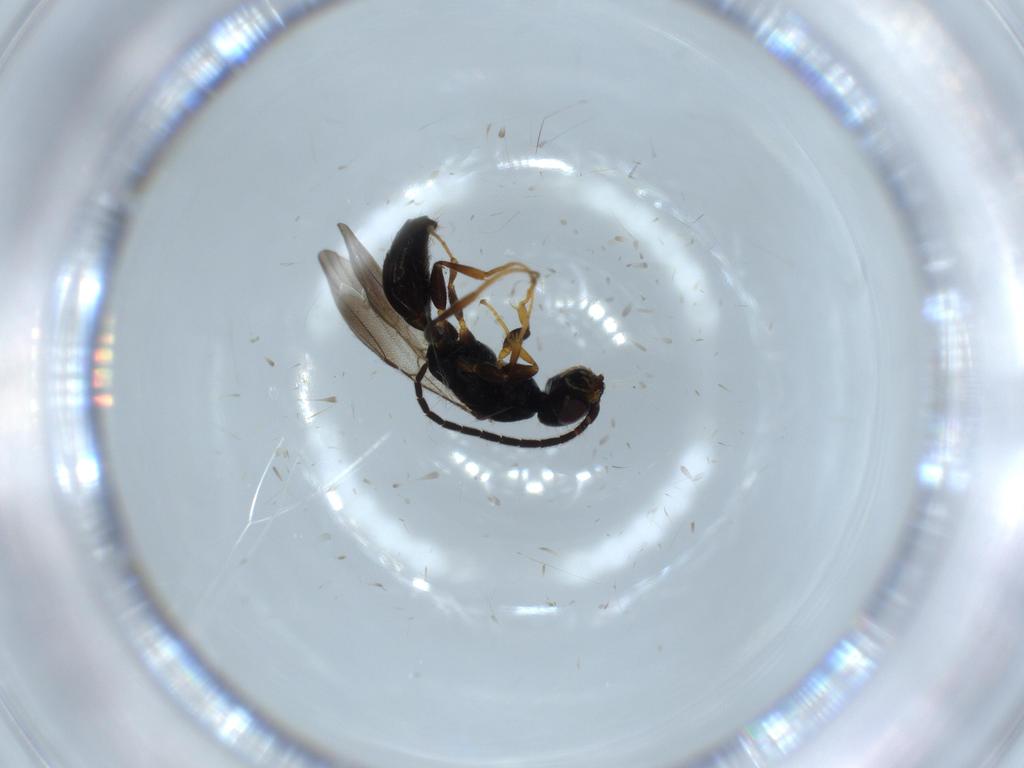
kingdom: Animalia
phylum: Arthropoda
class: Insecta
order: Hymenoptera
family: Bethylidae
